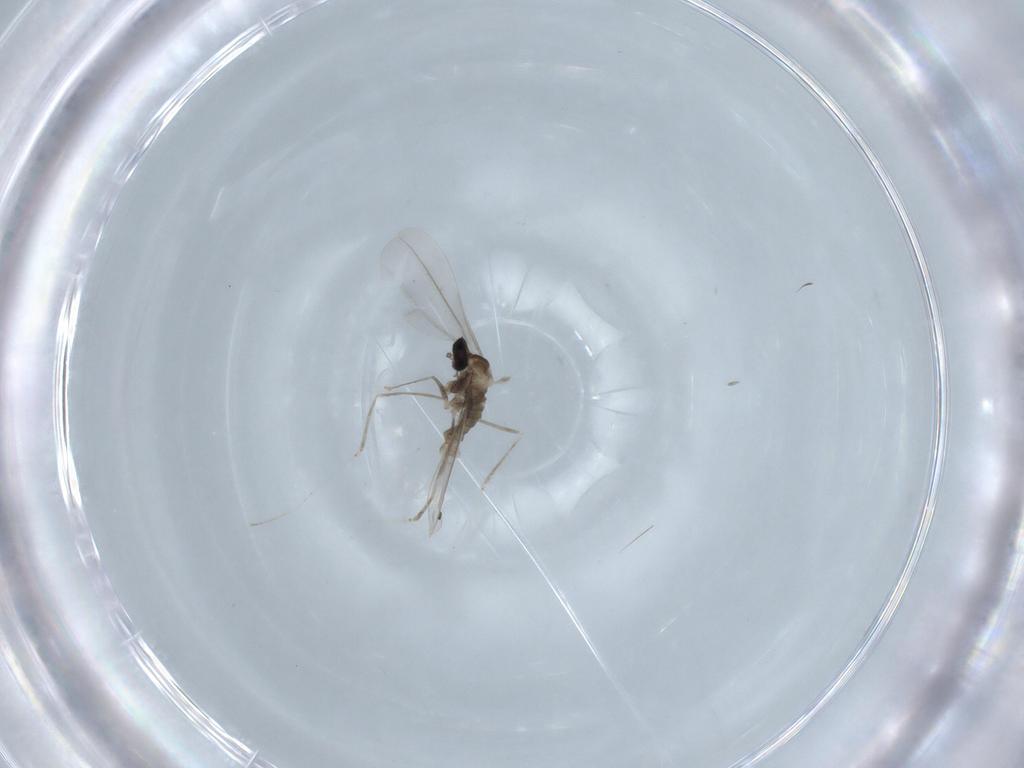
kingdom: Animalia
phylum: Arthropoda
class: Insecta
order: Diptera
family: Cecidomyiidae
